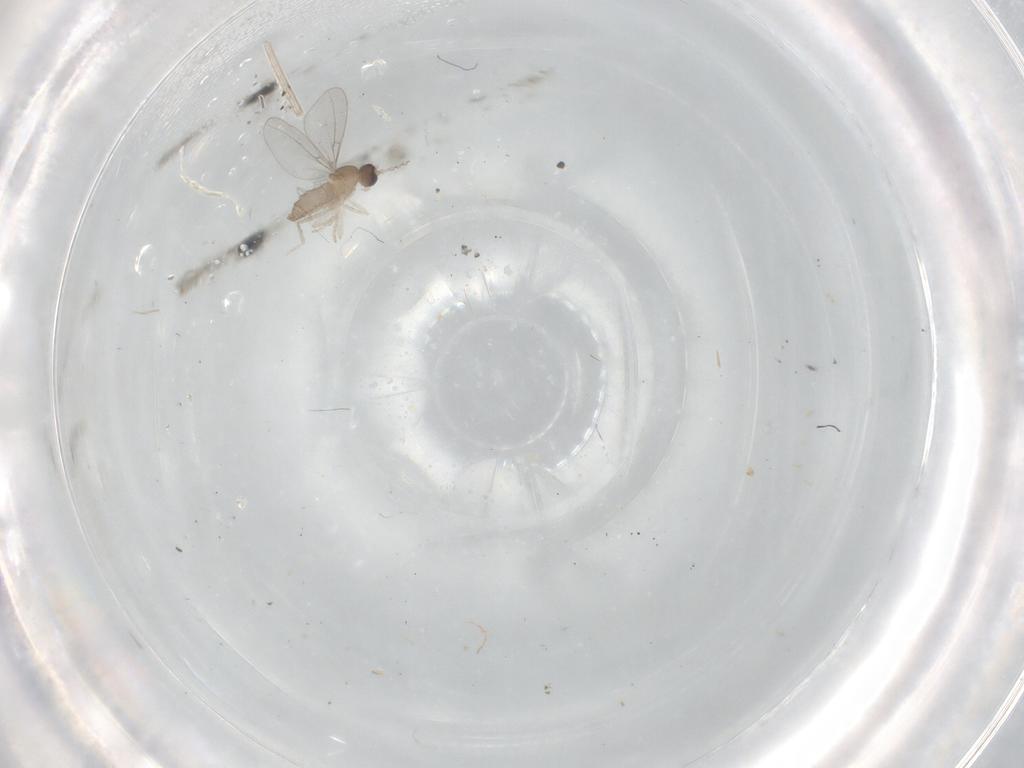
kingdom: Animalia
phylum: Arthropoda
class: Insecta
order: Diptera
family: Cecidomyiidae
